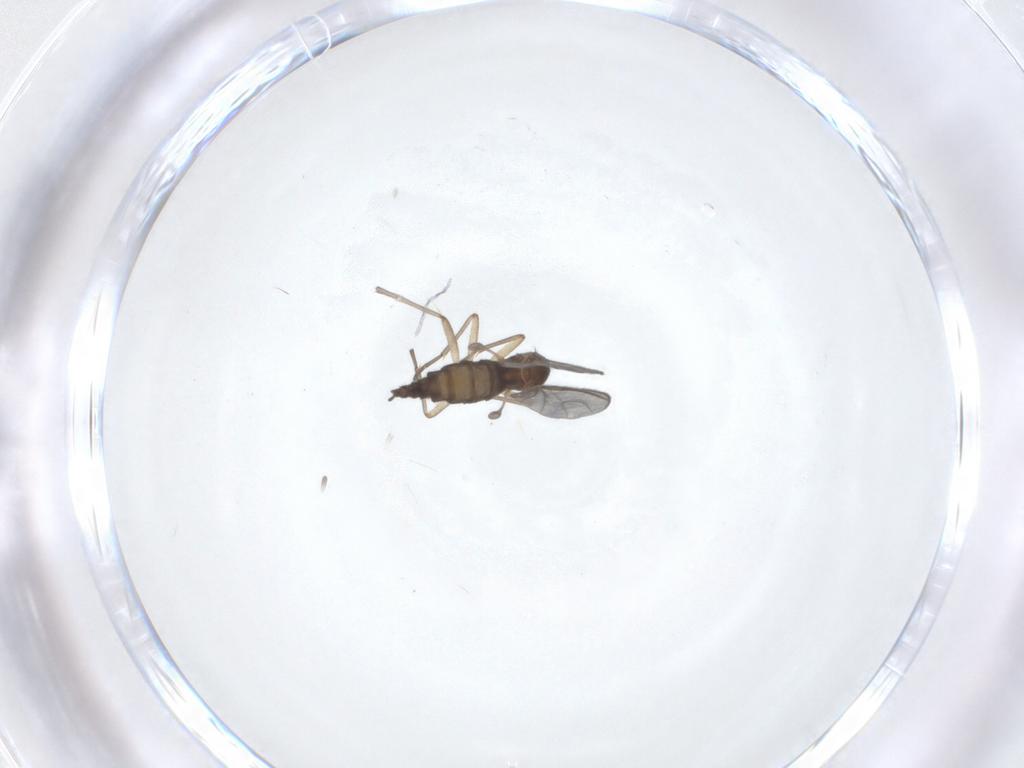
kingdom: Animalia
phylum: Arthropoda
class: Insecta
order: Diptera
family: Sciaridae
